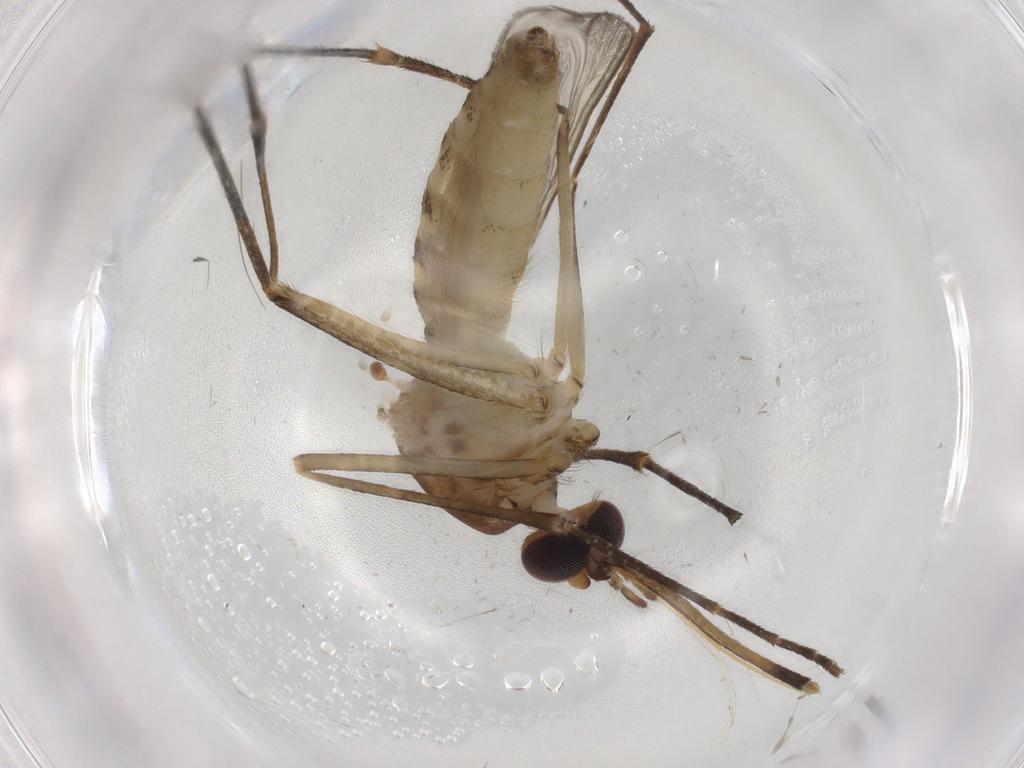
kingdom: Animalia
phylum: Arthropoda
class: Insecta
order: Diptera
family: Culicidae
